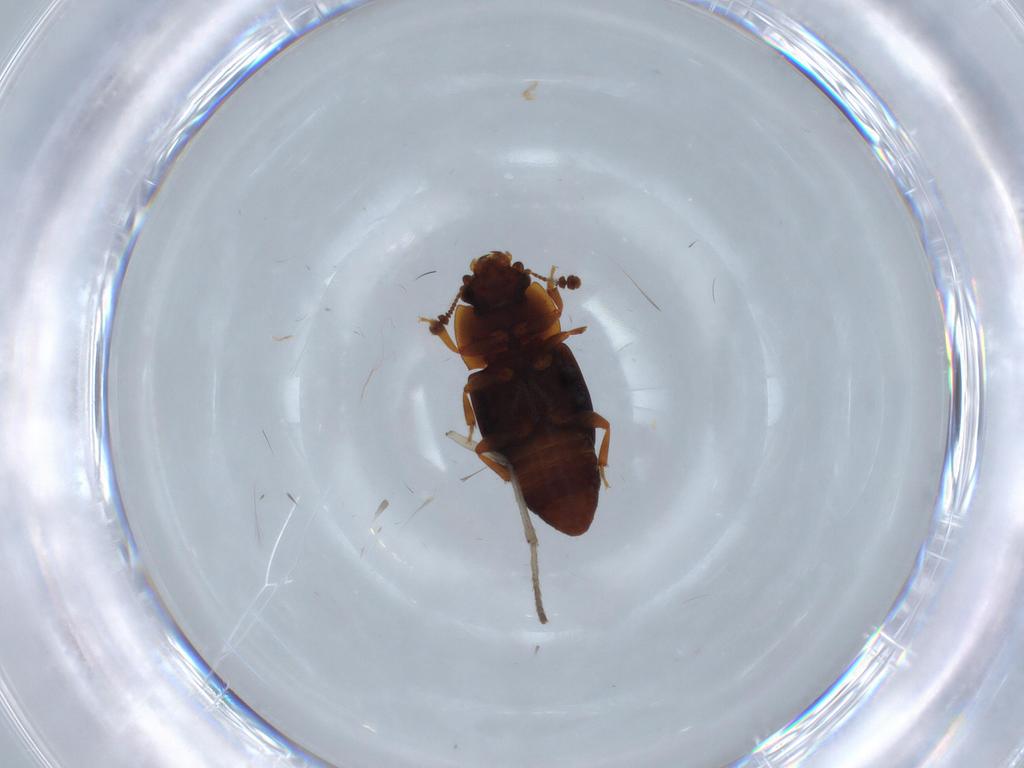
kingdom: Animalia
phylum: Arthropoda
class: Insecta
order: Coleoptera
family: Nitidulidae
